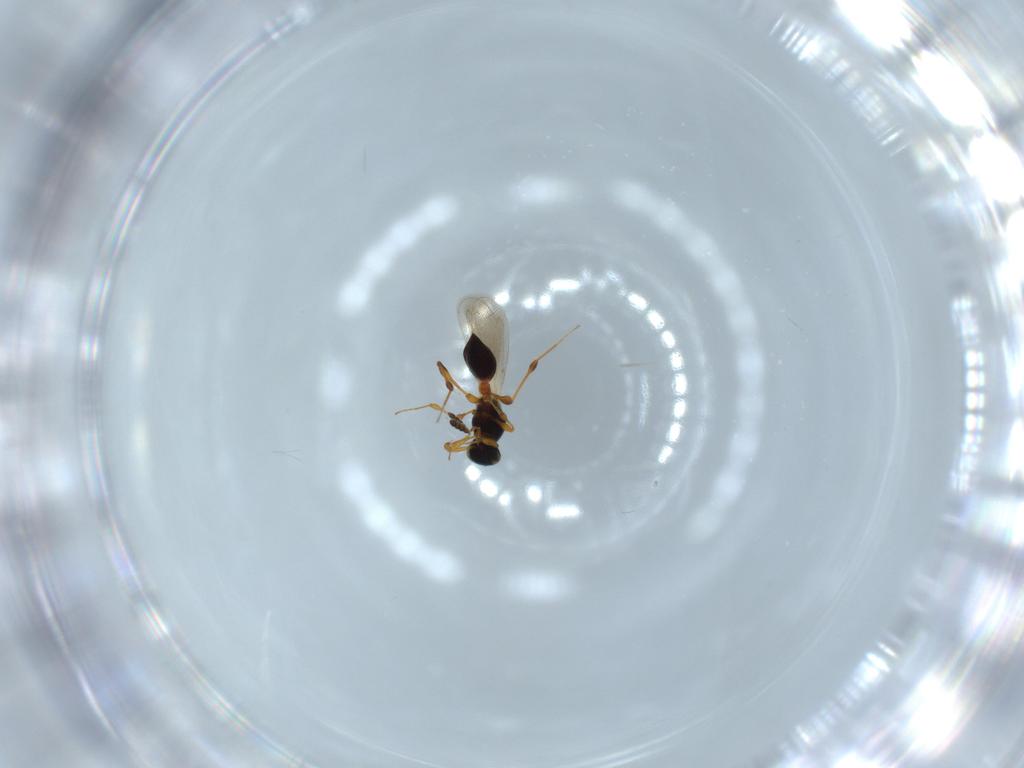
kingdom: Animalia
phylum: Arthropoda
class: Insecta
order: Hymenoptera
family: Platygastridae
